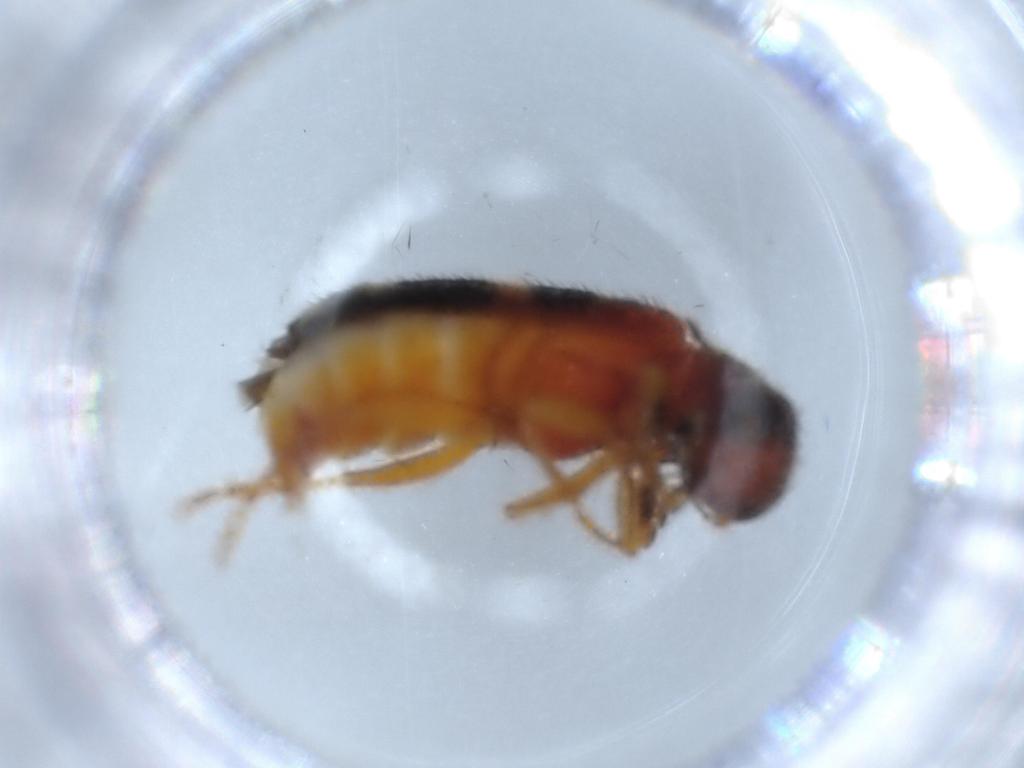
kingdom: Animalia
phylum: Arthropoda
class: Insecta
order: Coleoptera
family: Cleridae
